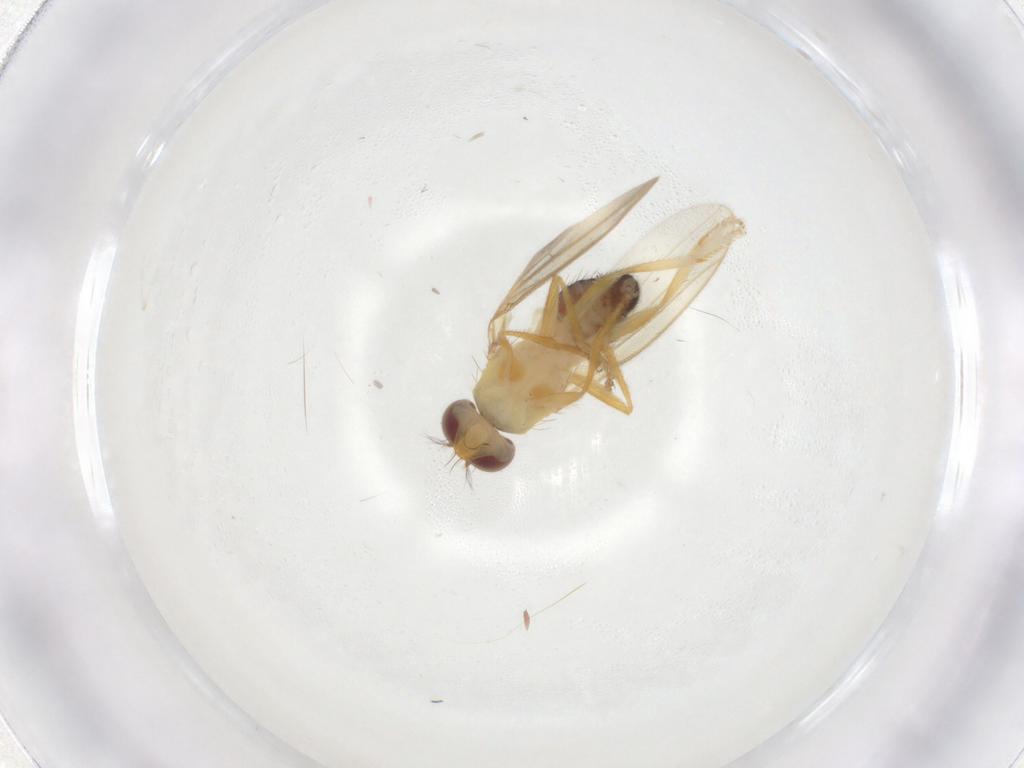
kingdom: Animalia
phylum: Arthropoda
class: Insecta
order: Diptera
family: Periscelididae
